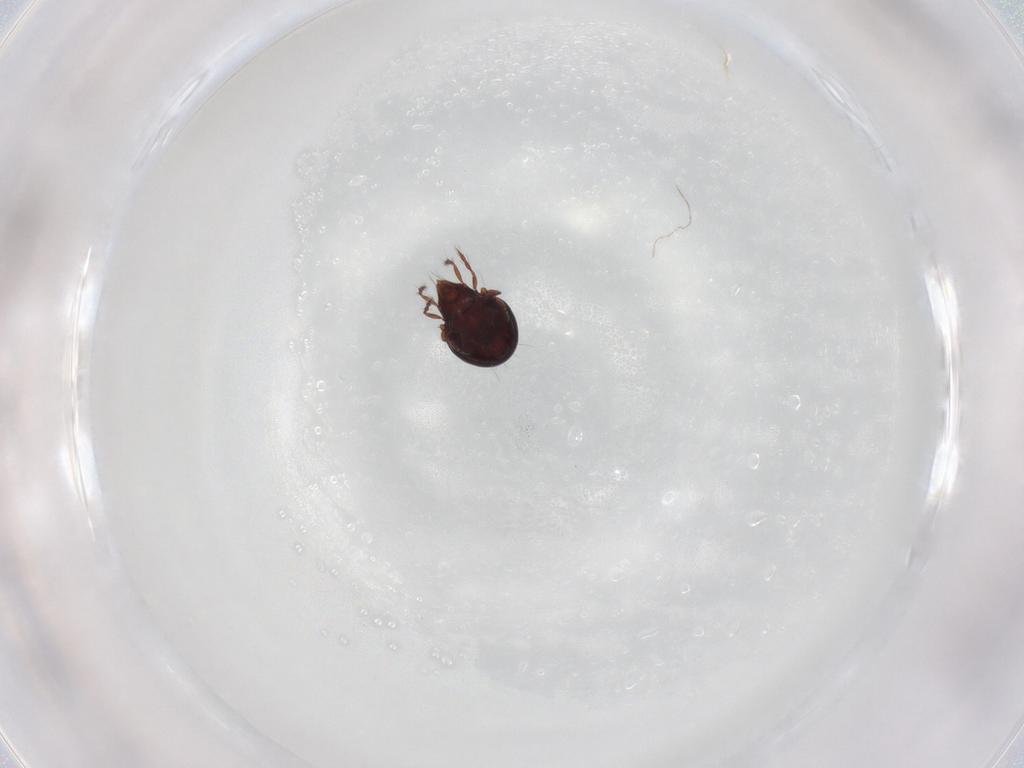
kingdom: Animalia
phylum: Arthropoda
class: Arachnida
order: Sarcoptiformes
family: Ceratoppiidae
